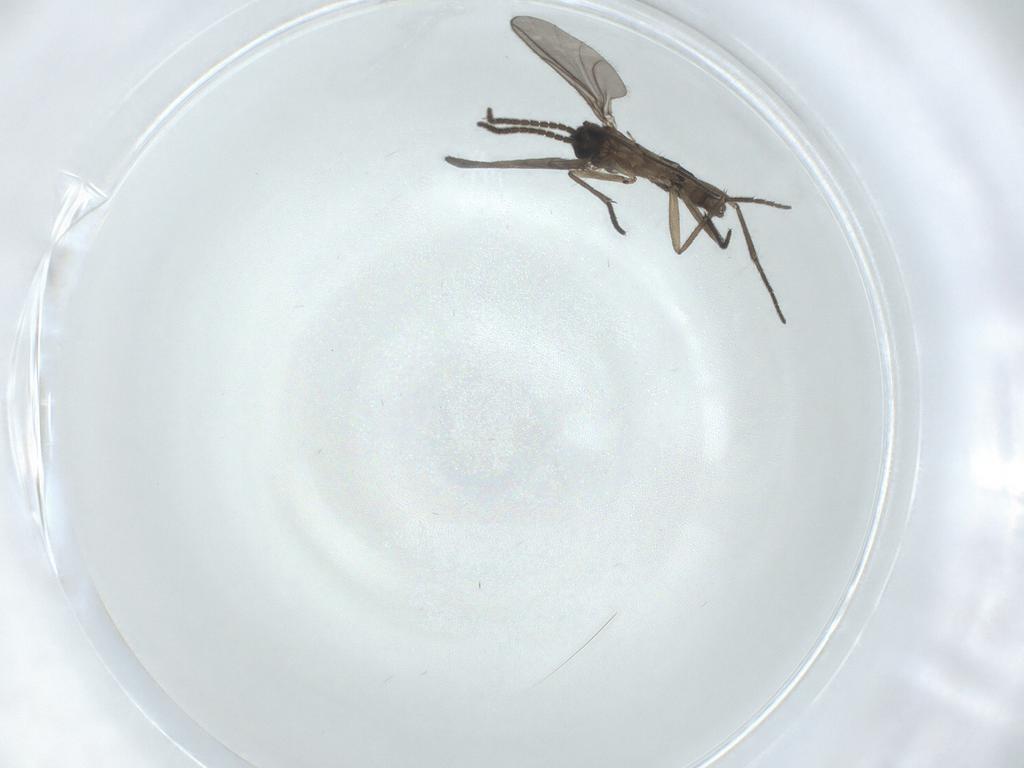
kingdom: Animalia
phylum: Arthropoda
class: Insecta
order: Diptera
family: Sciaridae
